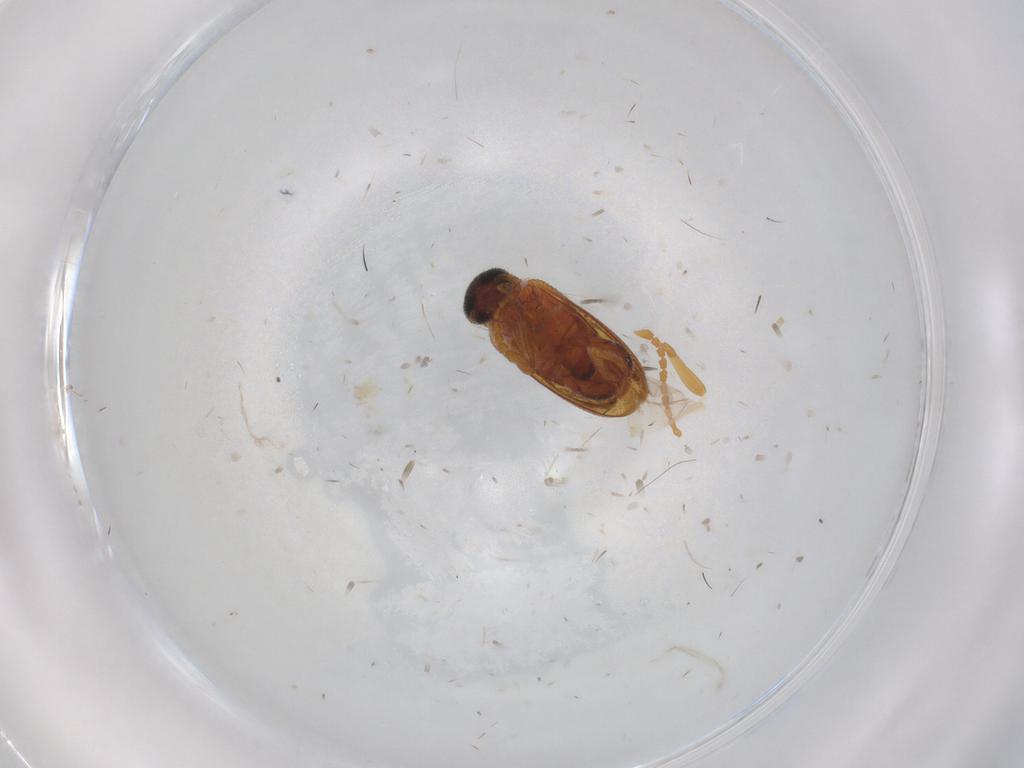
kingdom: Animalia
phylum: Arthropoda
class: Insecta
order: Coleoptera
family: Aderidae
